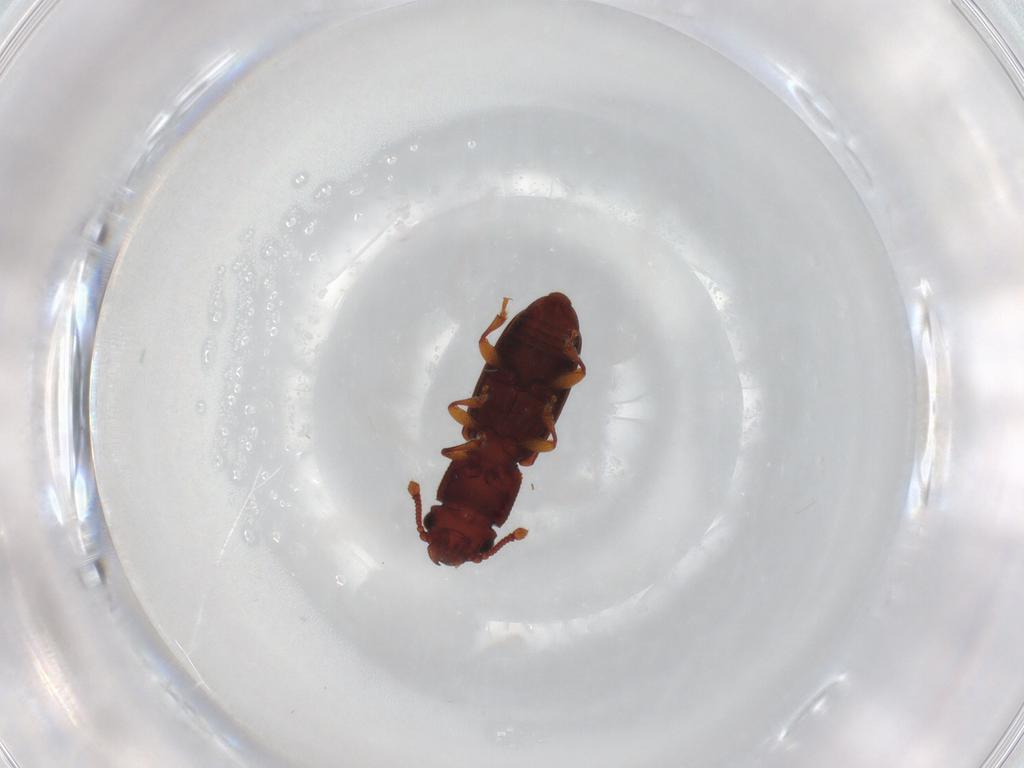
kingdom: Animalia
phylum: Arthropoda
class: Insecta
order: Coleoptera
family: Monotomidae
